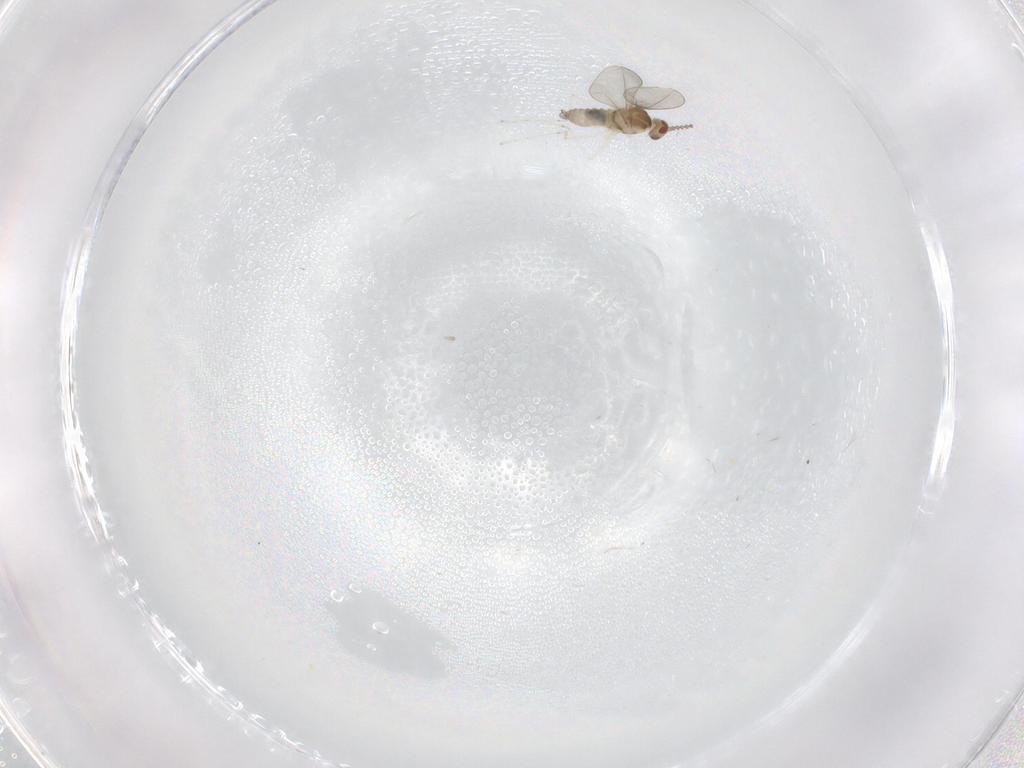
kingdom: Animalia
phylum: Arthropoda
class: Insecta
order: Diptera
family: Cecidomyiidae
